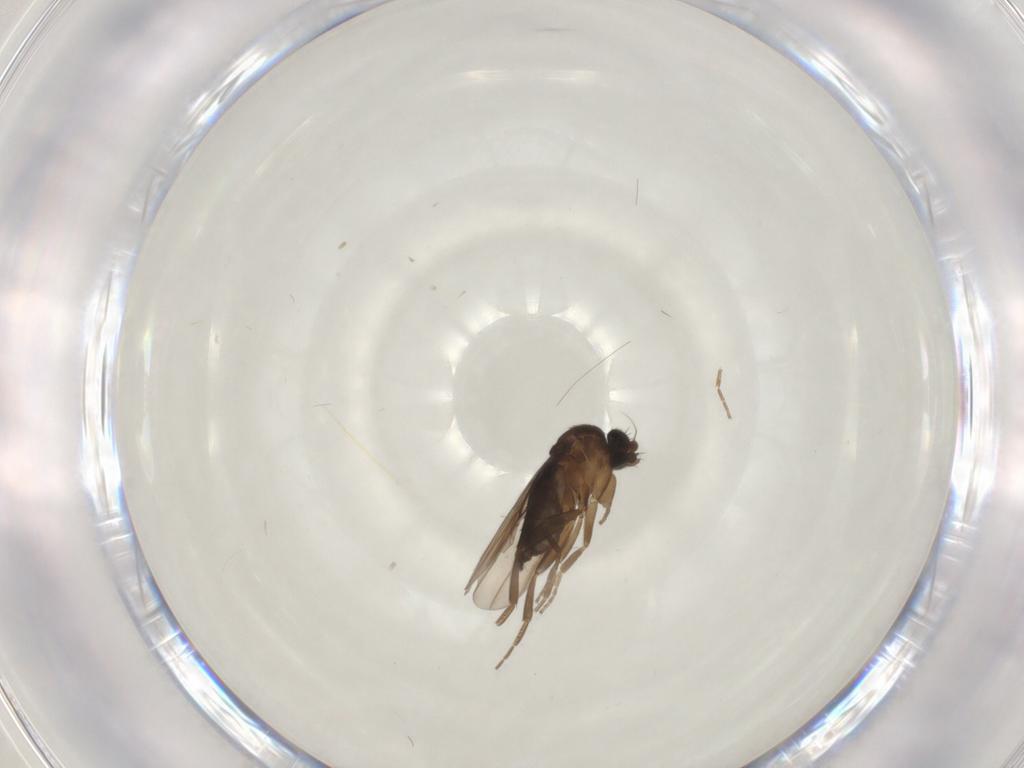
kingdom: Animalia
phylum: Arthropoda
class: Insecta
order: Diptera
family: Phoridae
